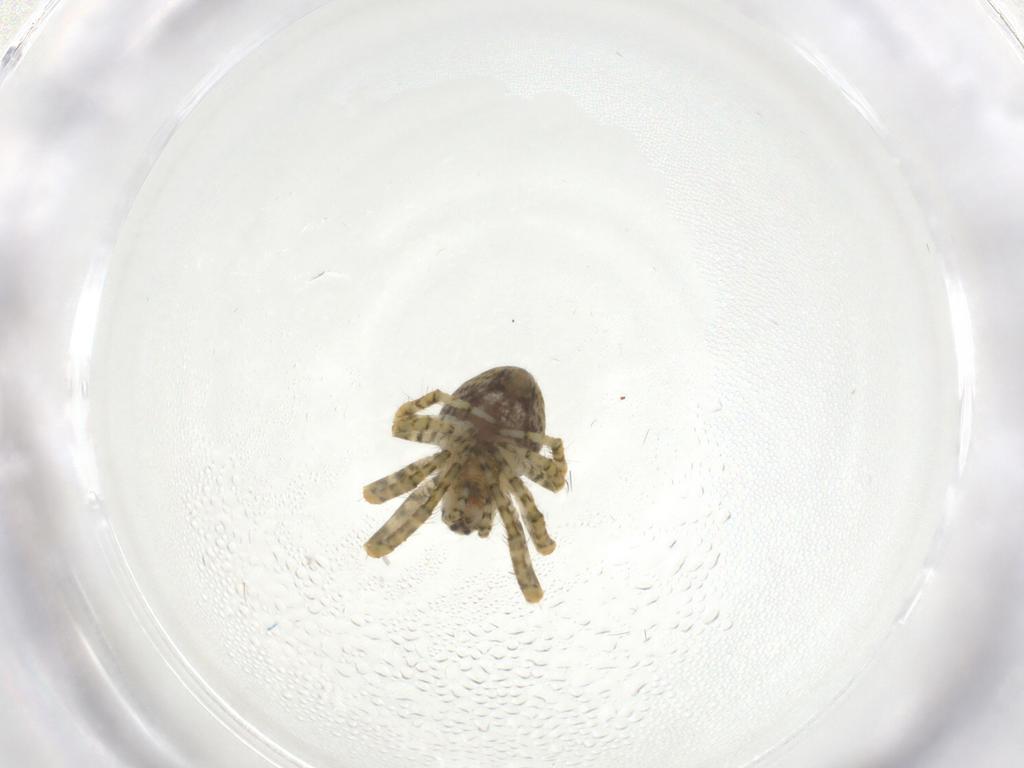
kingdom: Animalia
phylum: Arthropoda
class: Arachnida
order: Araneae
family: Araneidae
